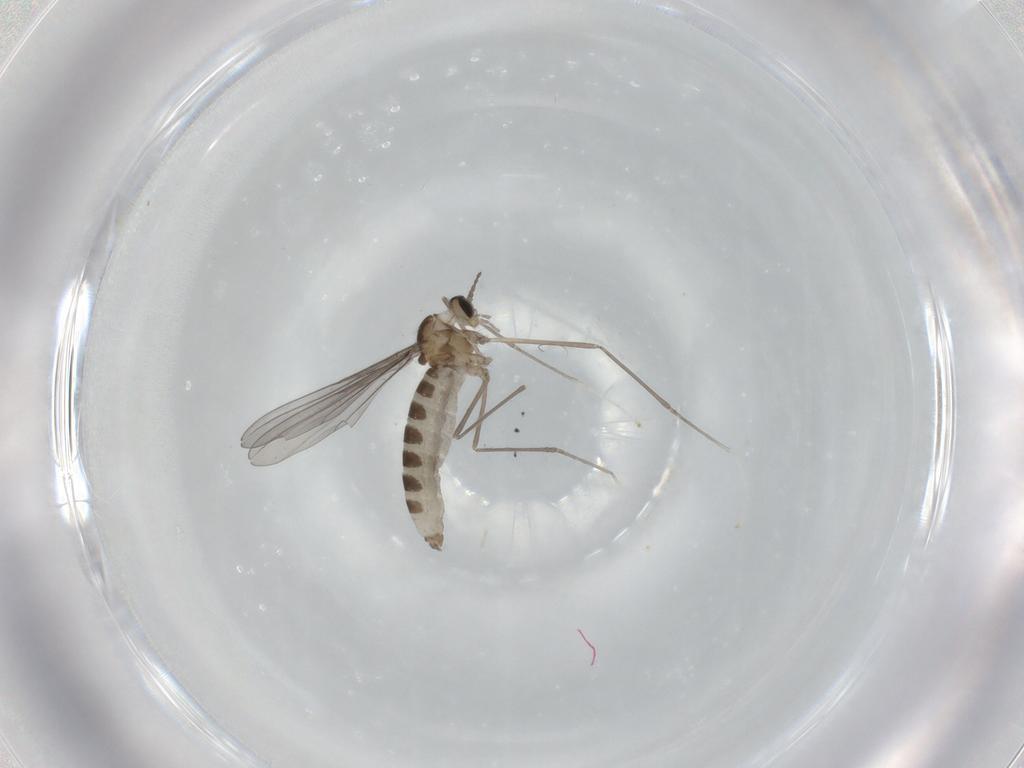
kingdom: Animalia
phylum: Arthropoda
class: Insecta
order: Diptera
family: Cecidomyiidae
